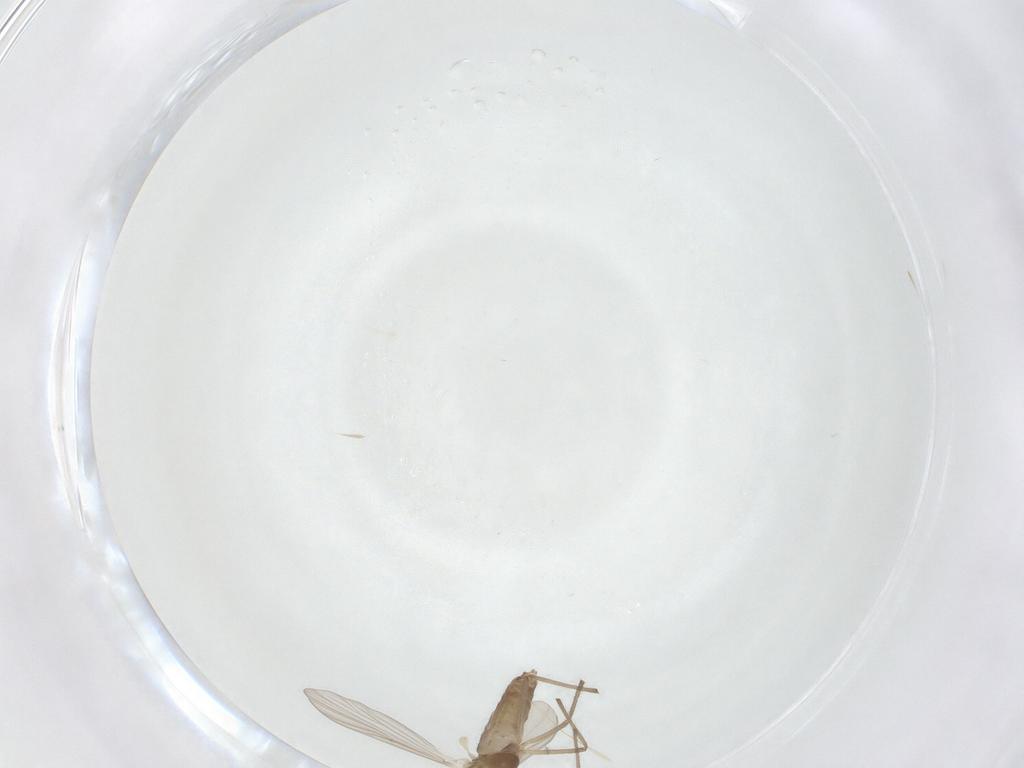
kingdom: Animalia
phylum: Arthropoda
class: Insecta
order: Diptera
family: Chironomidae
